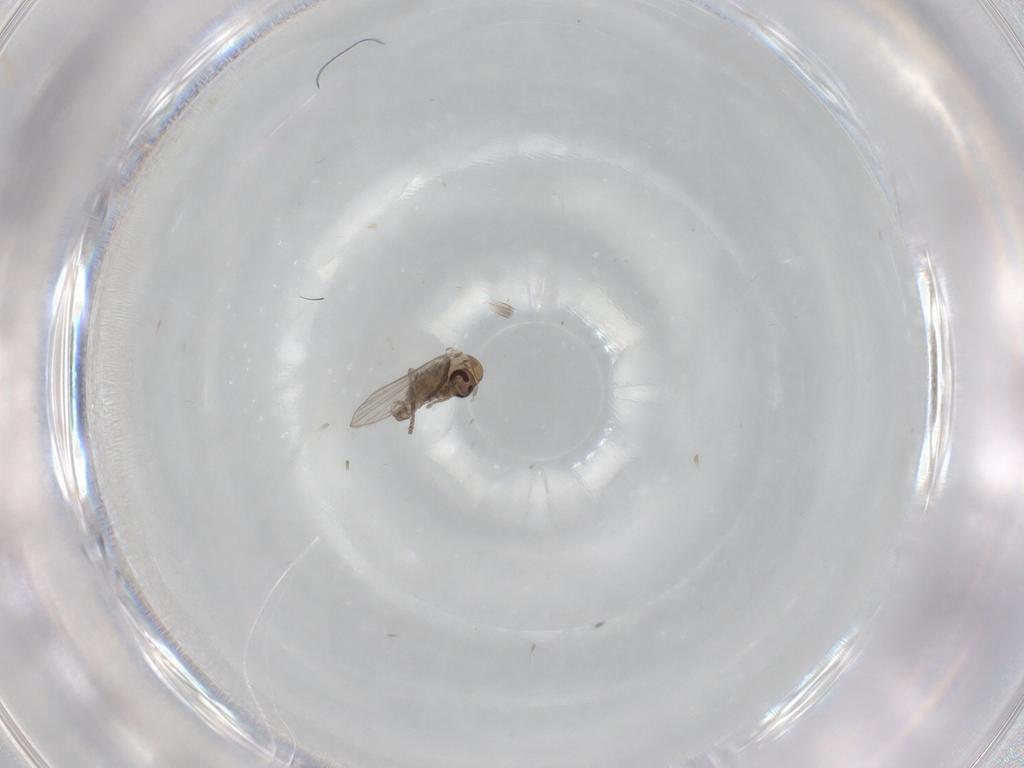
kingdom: Animalia
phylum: Arthropoda
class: Insecta
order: Diptera
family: Psychodidae
